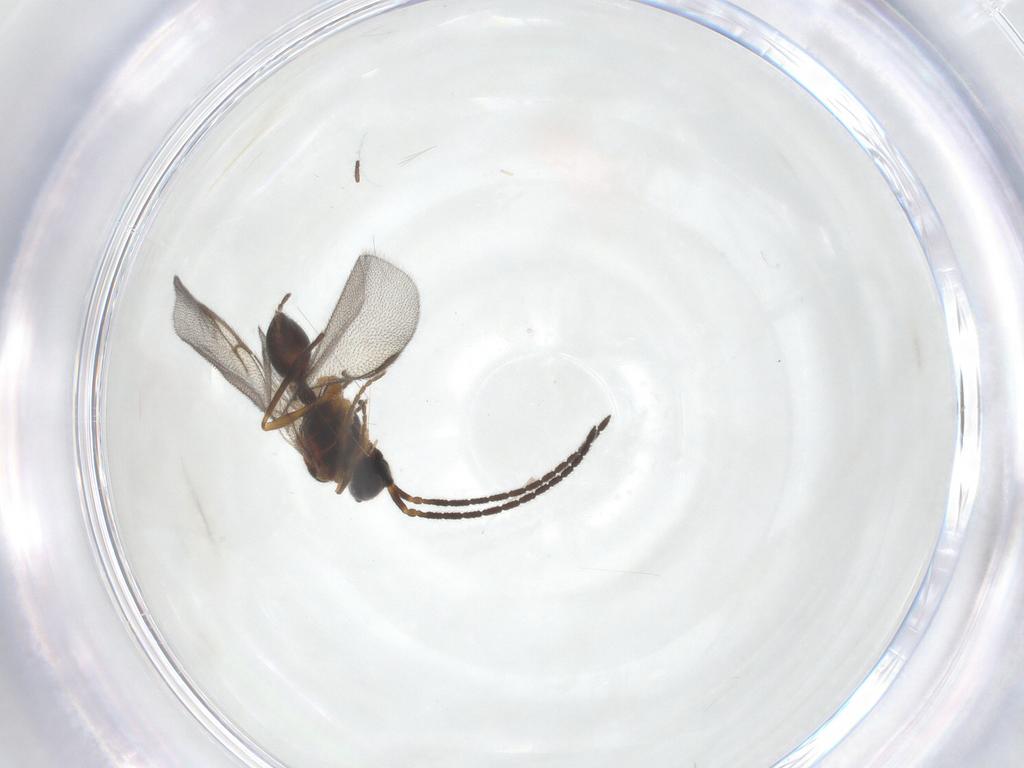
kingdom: Animalia
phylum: Arthropoda
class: Insecta
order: Hymenoptera
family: Diapriidae
